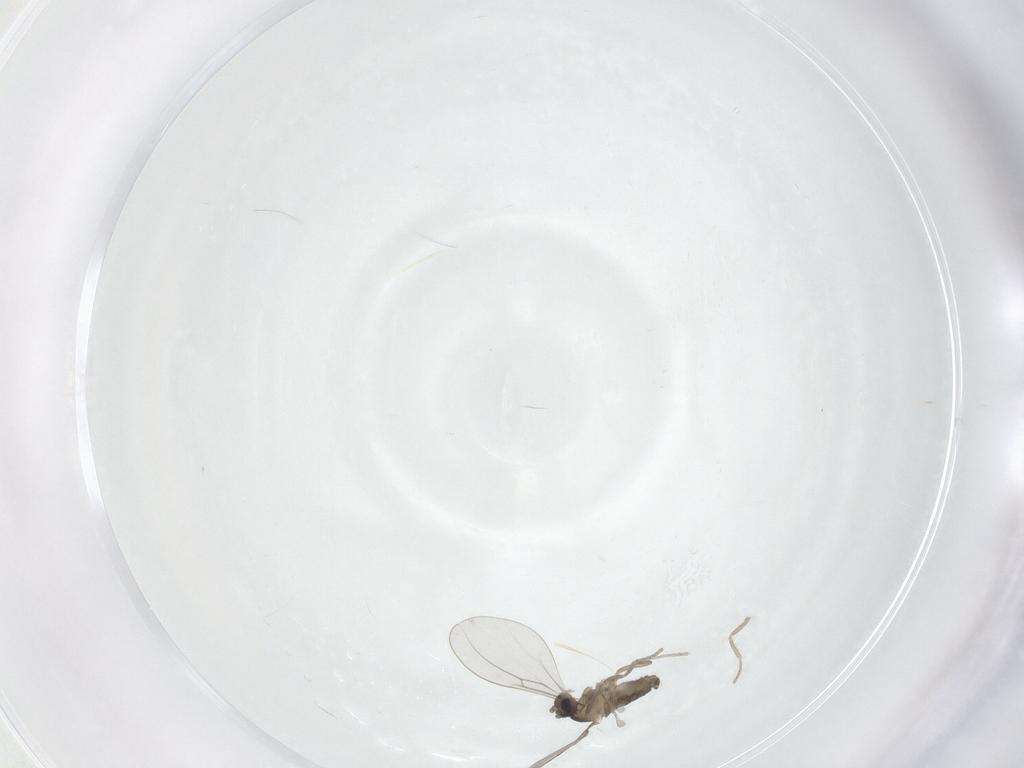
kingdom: Animalia
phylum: Arthropoda
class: Insecta
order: Diptera
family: Cecidomyiidae
